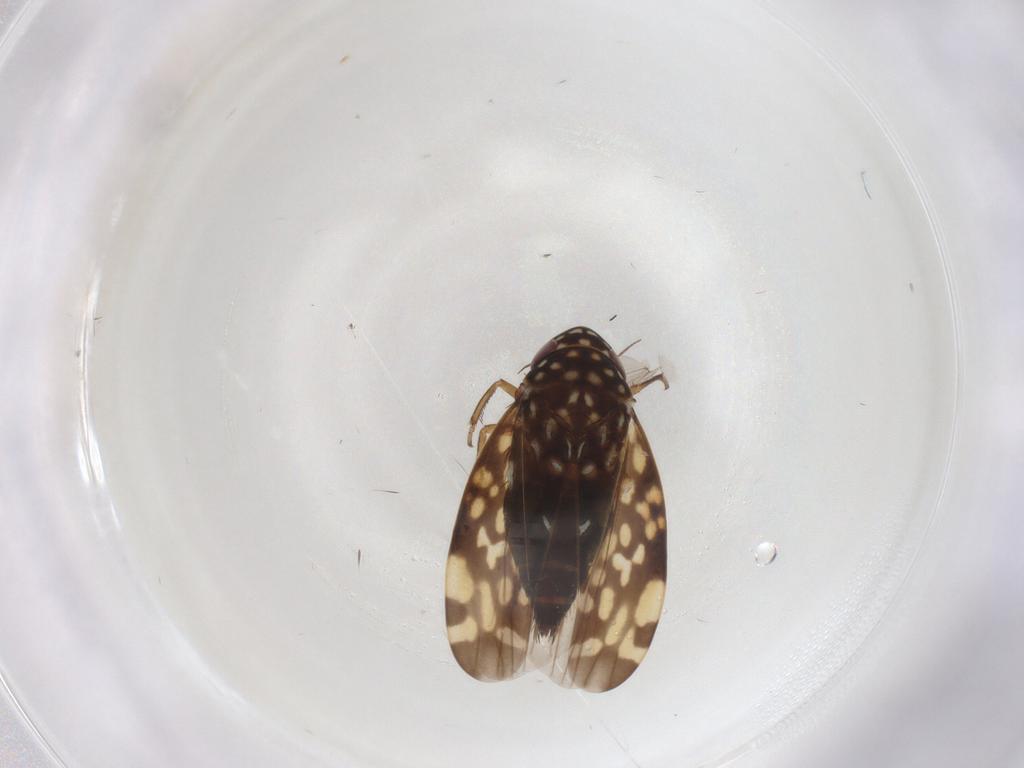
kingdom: Animalia
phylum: Arthropoda
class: Insecta
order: Hemiptera
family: Cicadellidae
